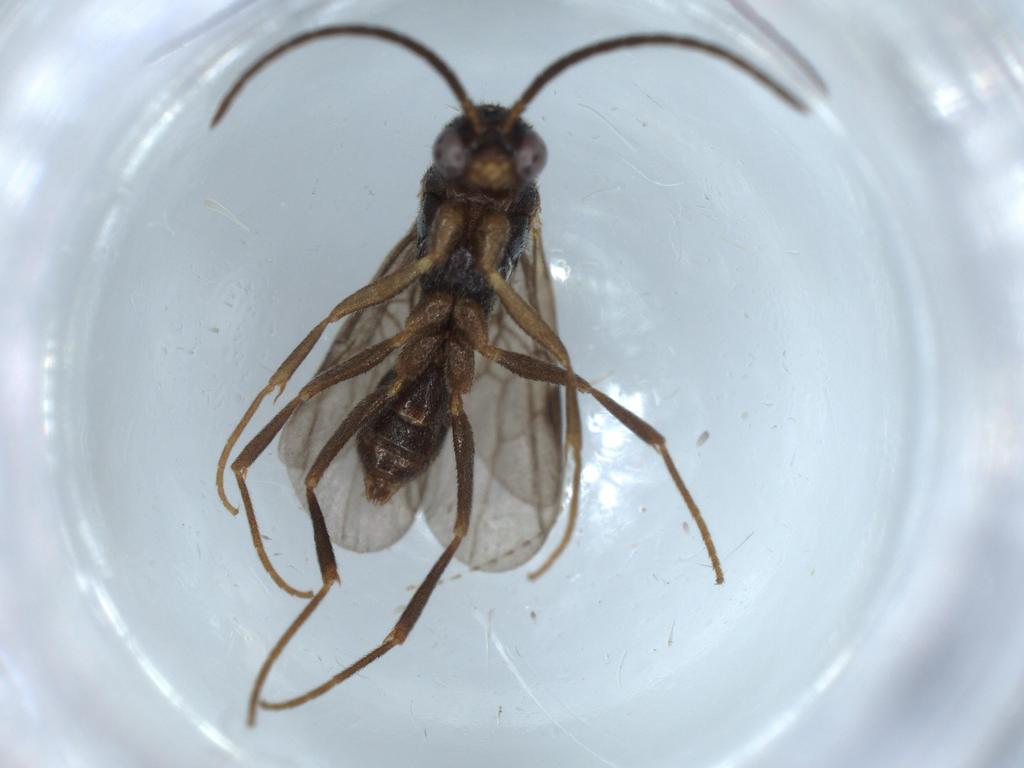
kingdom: Animalia
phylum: Arthropoda
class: Insecta
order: Hymenoptera
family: Formicidae
